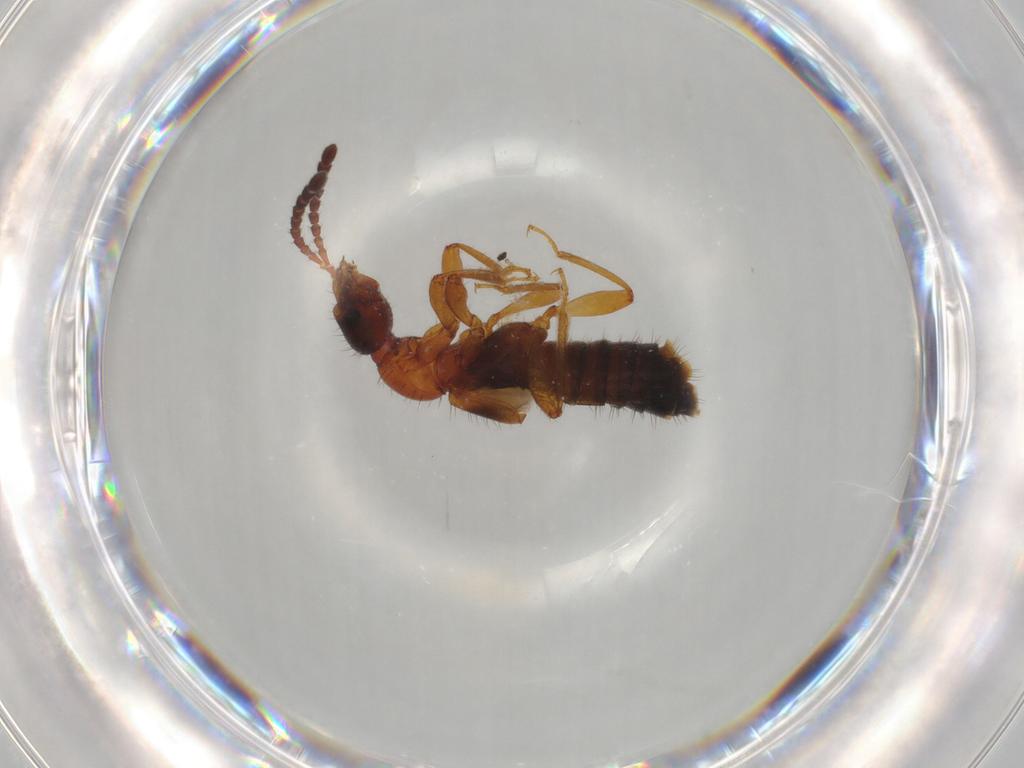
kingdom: Animalia
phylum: Arthropoda
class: Insecta
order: Coleoptera
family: Staphylinidae
